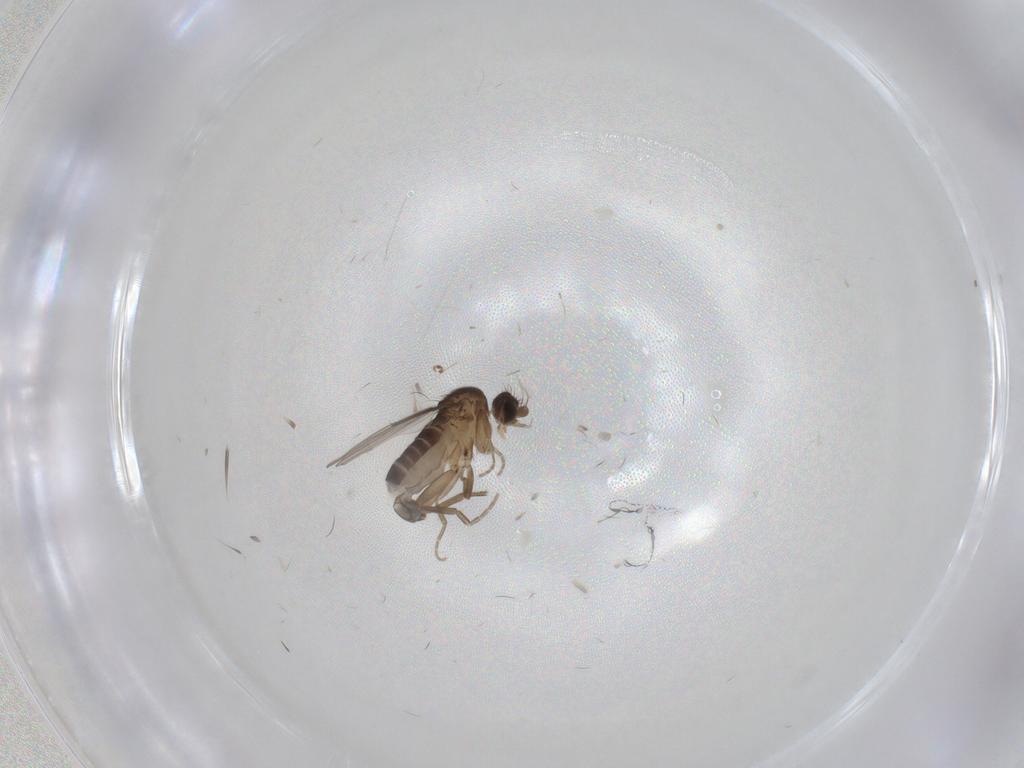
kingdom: Animalia
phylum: Arthropoda
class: Insecta
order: Diptera
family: Phoridae
